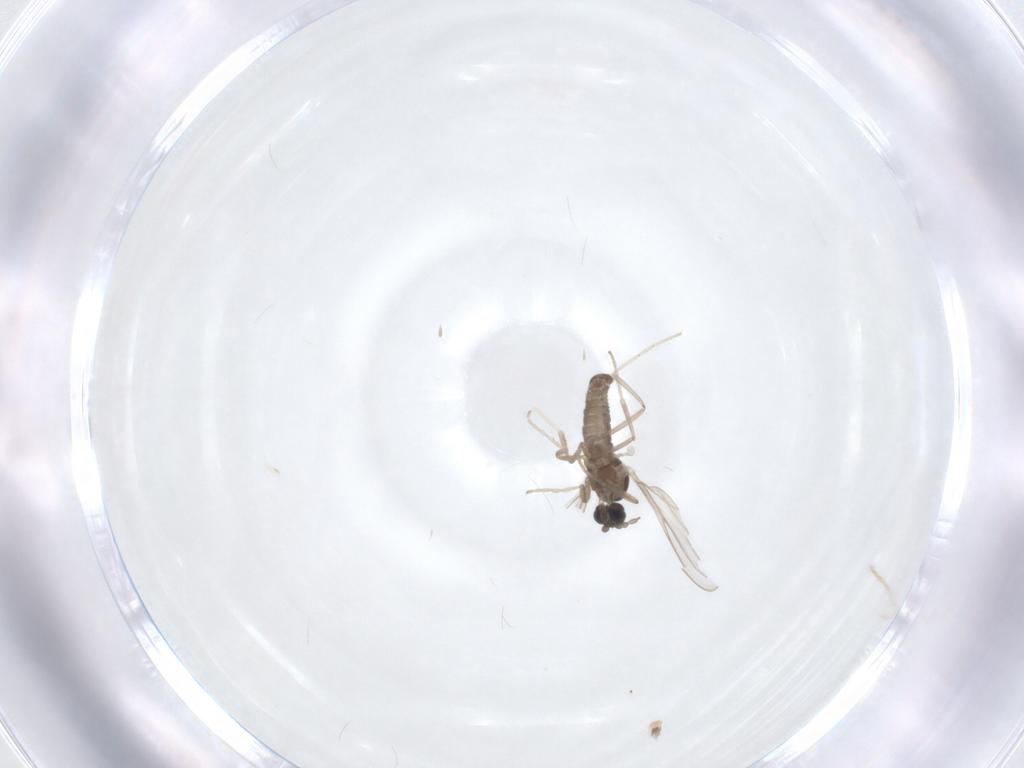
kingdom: Animalia
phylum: Arthropoda
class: Insecta
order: Diptera
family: Cecidomyiidae
